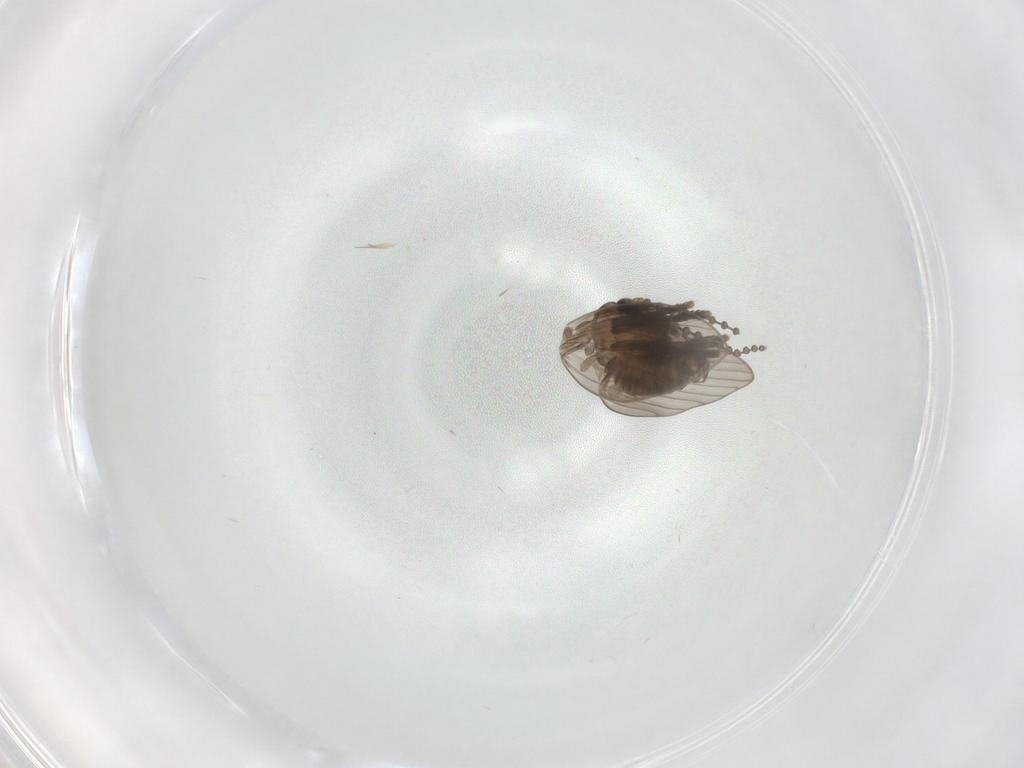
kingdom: Animalia
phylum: Arthropoda
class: Insecta
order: Diptera
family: Psychodidae
